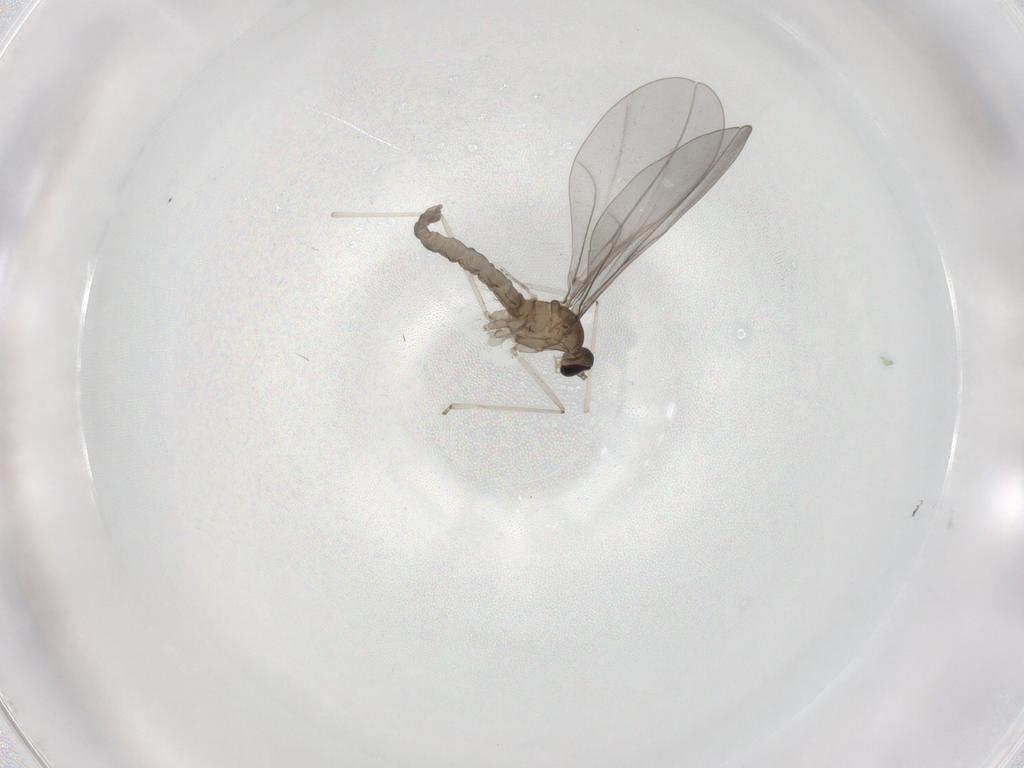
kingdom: Animalia
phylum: Arthropoda
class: Insecta
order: Diptera
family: Cecidomyiidae
